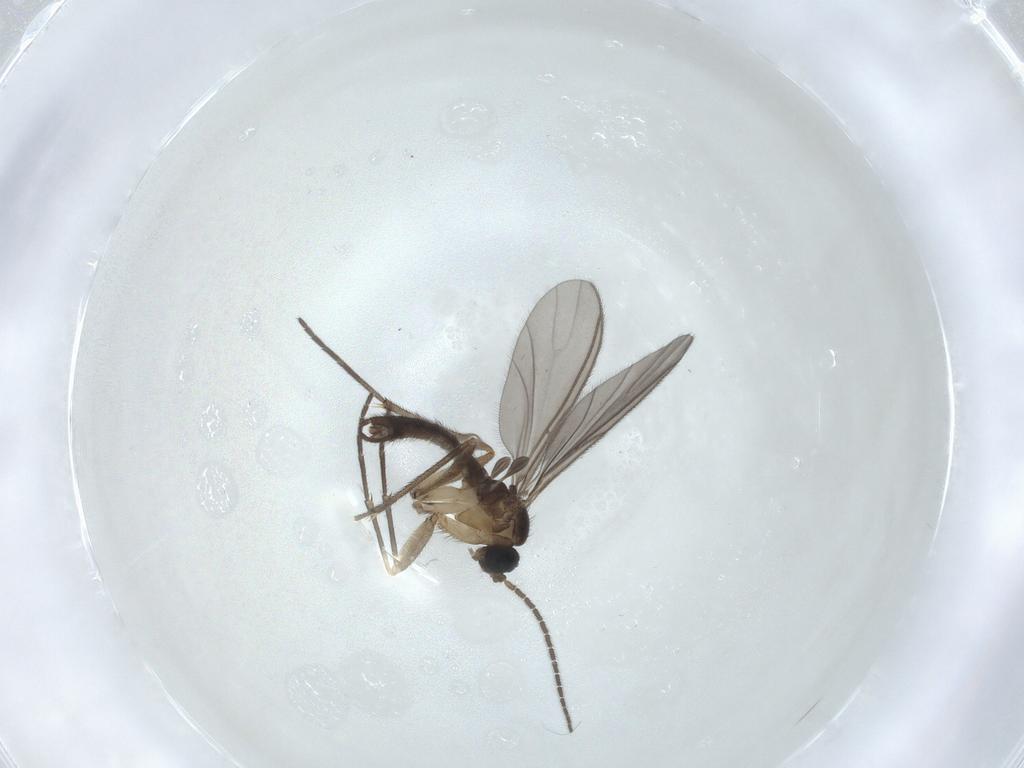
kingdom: Animalia
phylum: Arthropoda
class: Insecta
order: Diptera
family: Sciaridae
